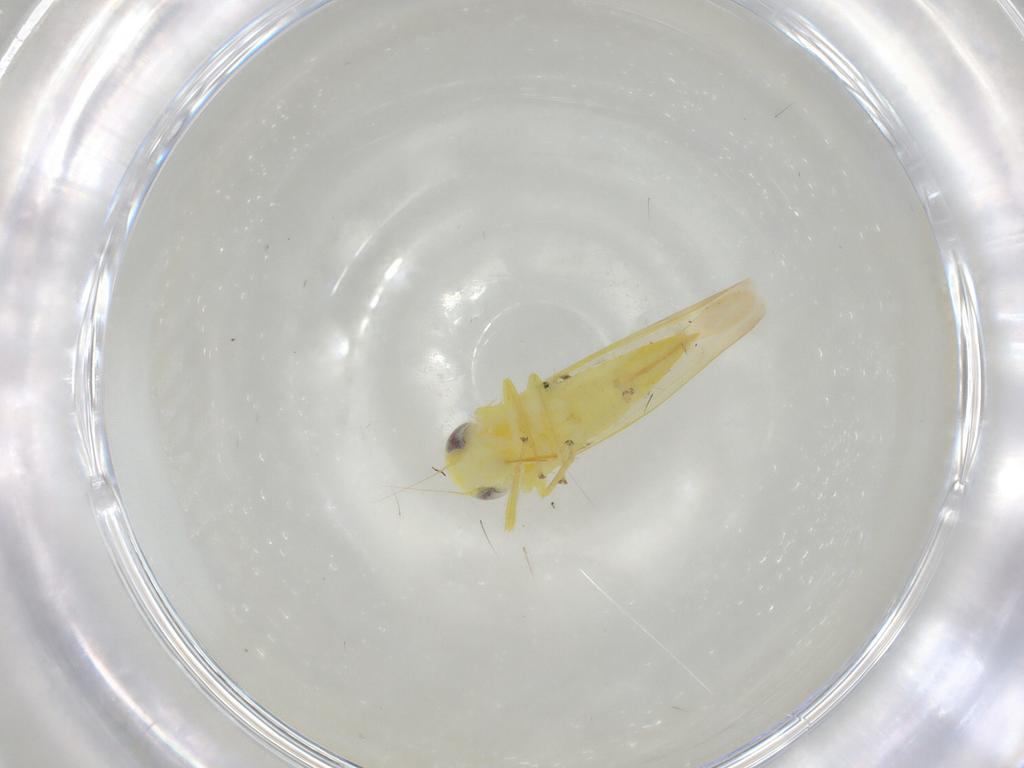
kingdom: Animalia
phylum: Arthropoda
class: Insecta
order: Hemiptera
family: Cicadellidae
